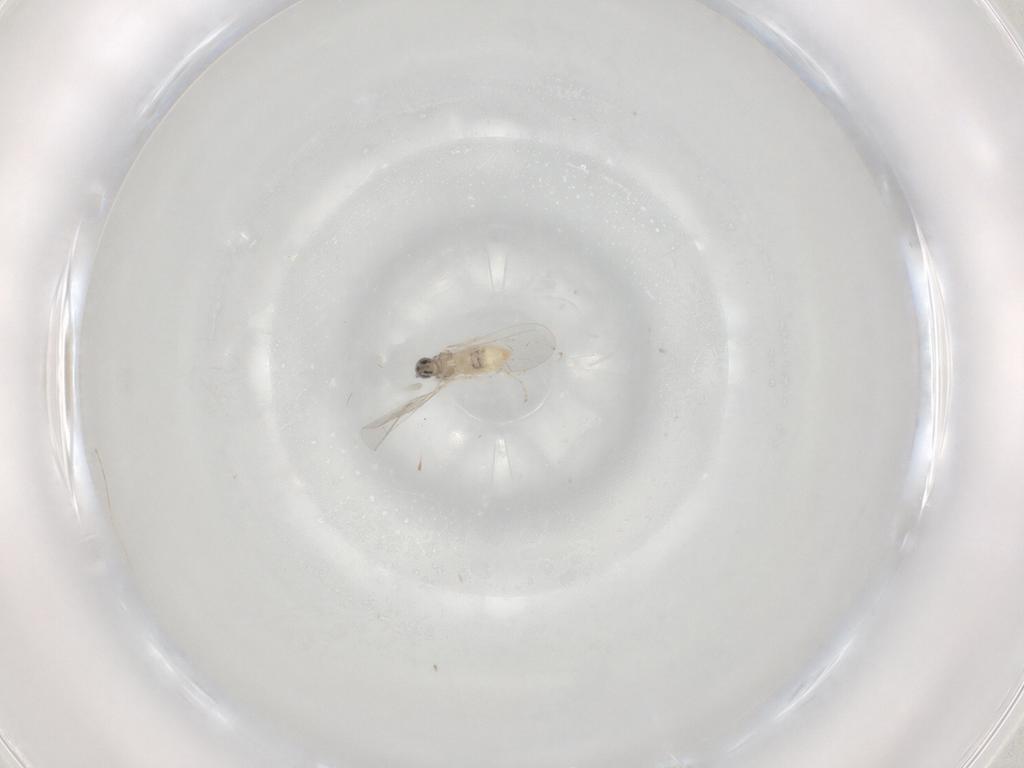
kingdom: Animalia
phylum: Arthropoda
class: Insecta
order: Diptera
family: Cecidomyiidae
